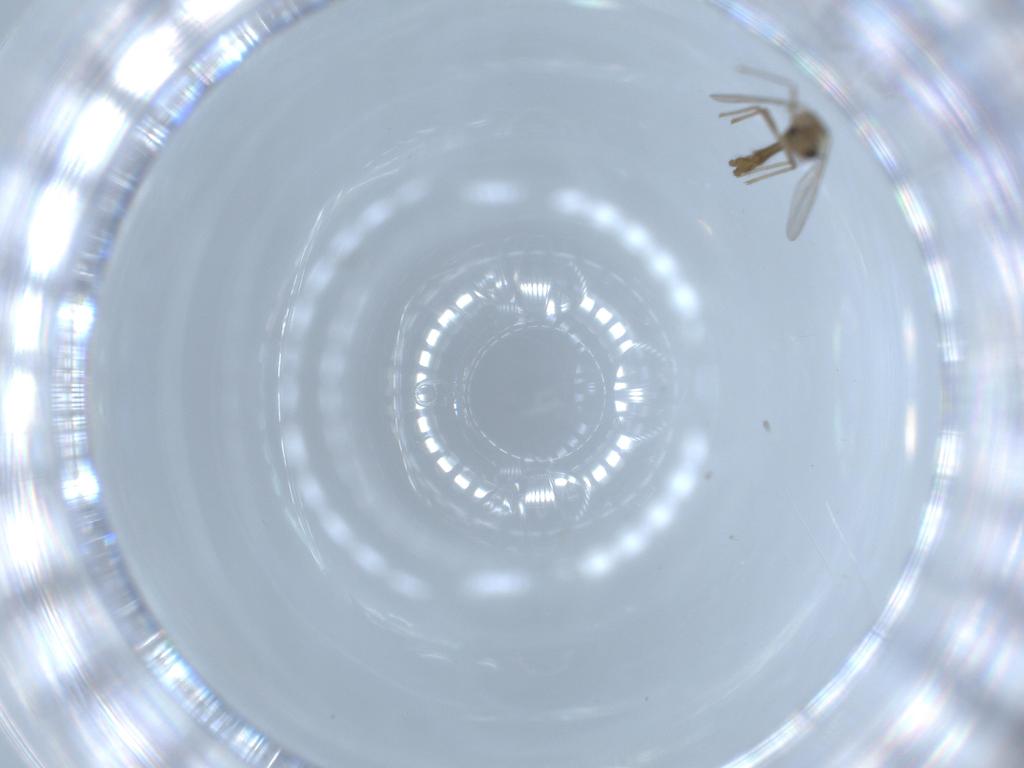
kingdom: Animalia
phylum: Arthropoda
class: Insecta
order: Diptera
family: Chironomidae
